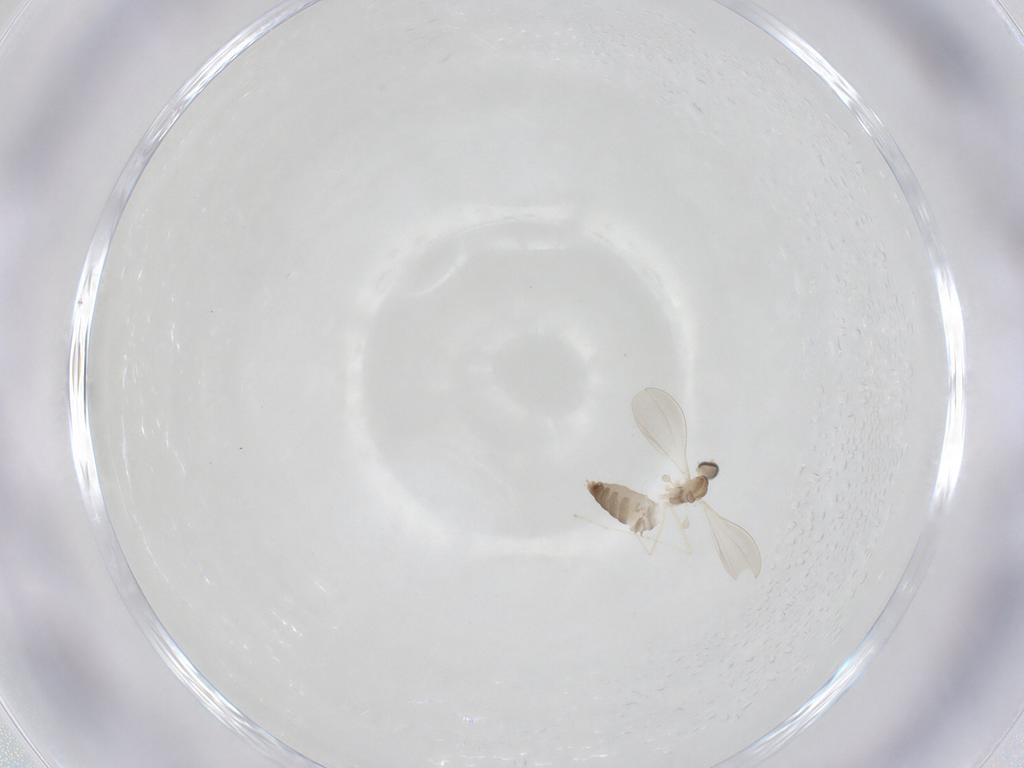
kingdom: Animalia
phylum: Arthropoda
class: Insecta
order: Diptera
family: Cecidomyiidae
